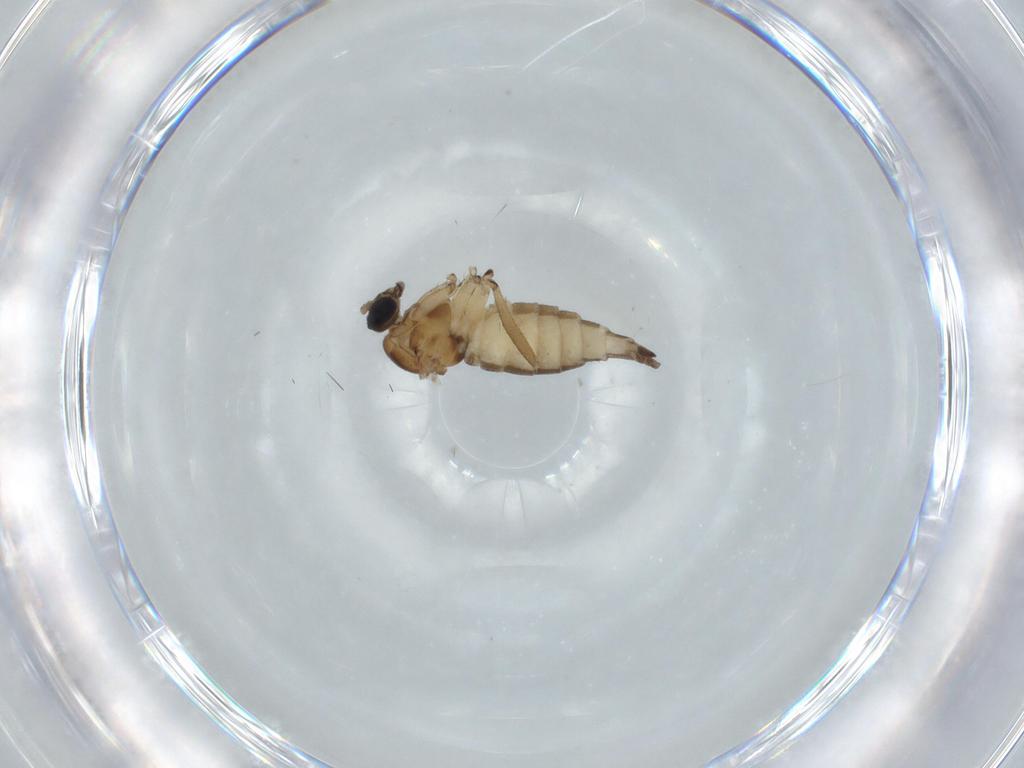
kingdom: Animalia
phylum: Arthropoda
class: Insecta
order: Diptera
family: Sciaridae
